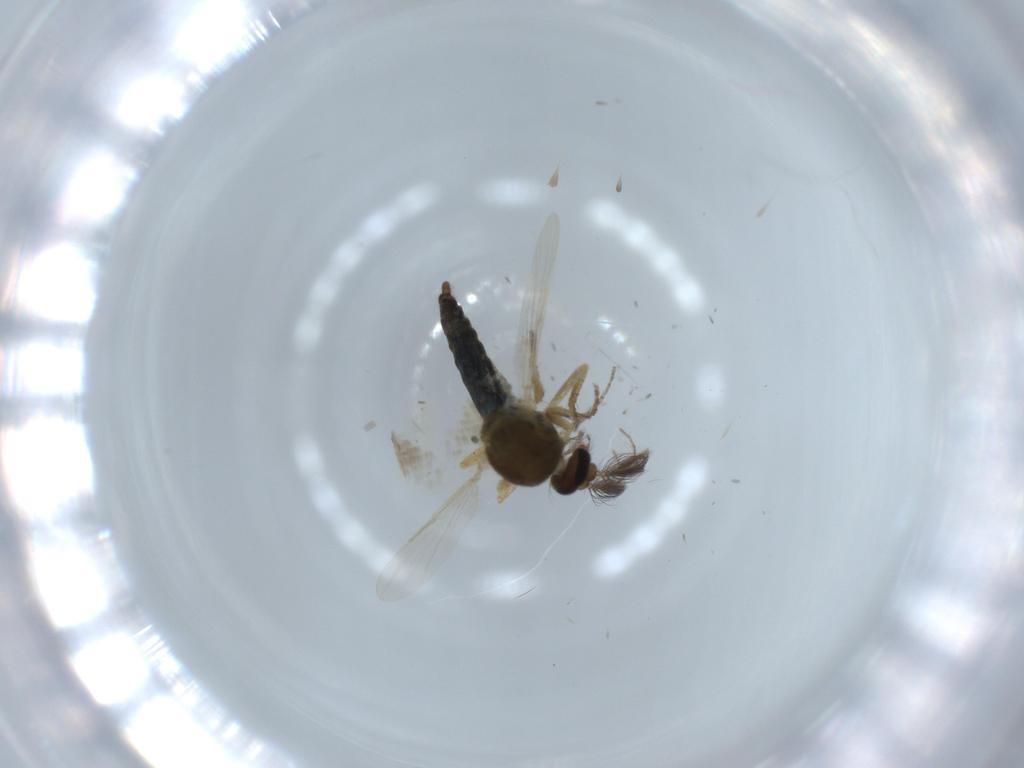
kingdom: Animalia
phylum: Arthropoda
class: Insecta
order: Diptera
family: Ceratopogonidae
